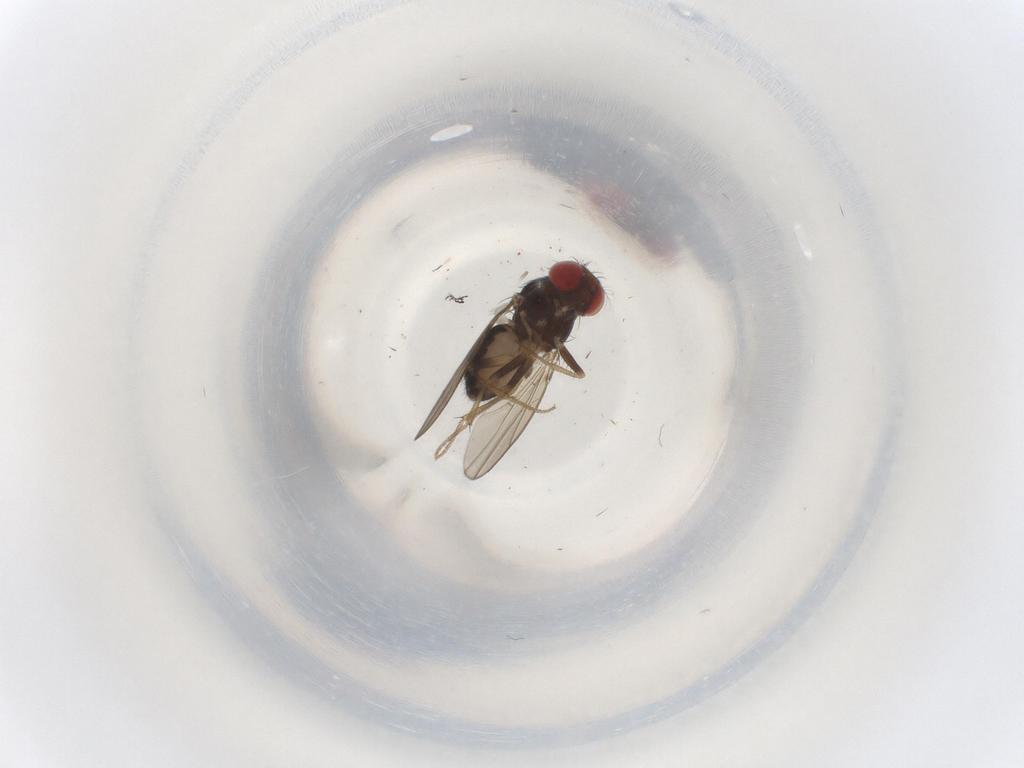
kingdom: Animalia
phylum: Arthropoda
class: Insecta
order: Diptera
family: Drosophilidae
